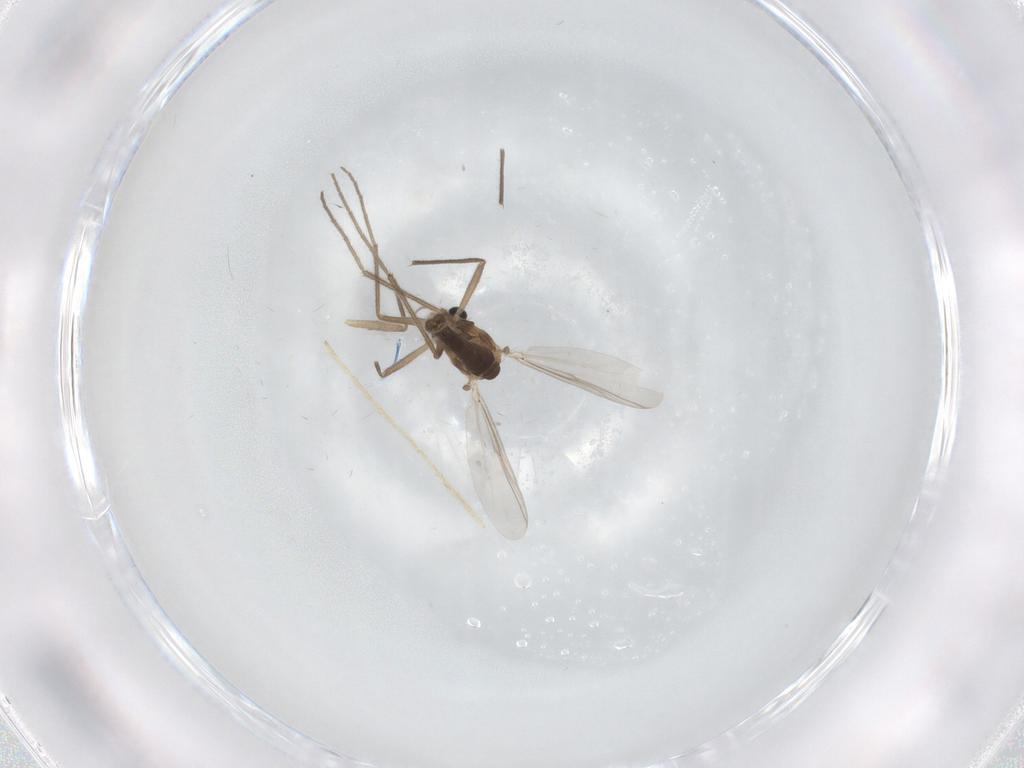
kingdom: Animalia
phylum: Arthropoda
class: Insecta
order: Diptera
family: Chironomidae
